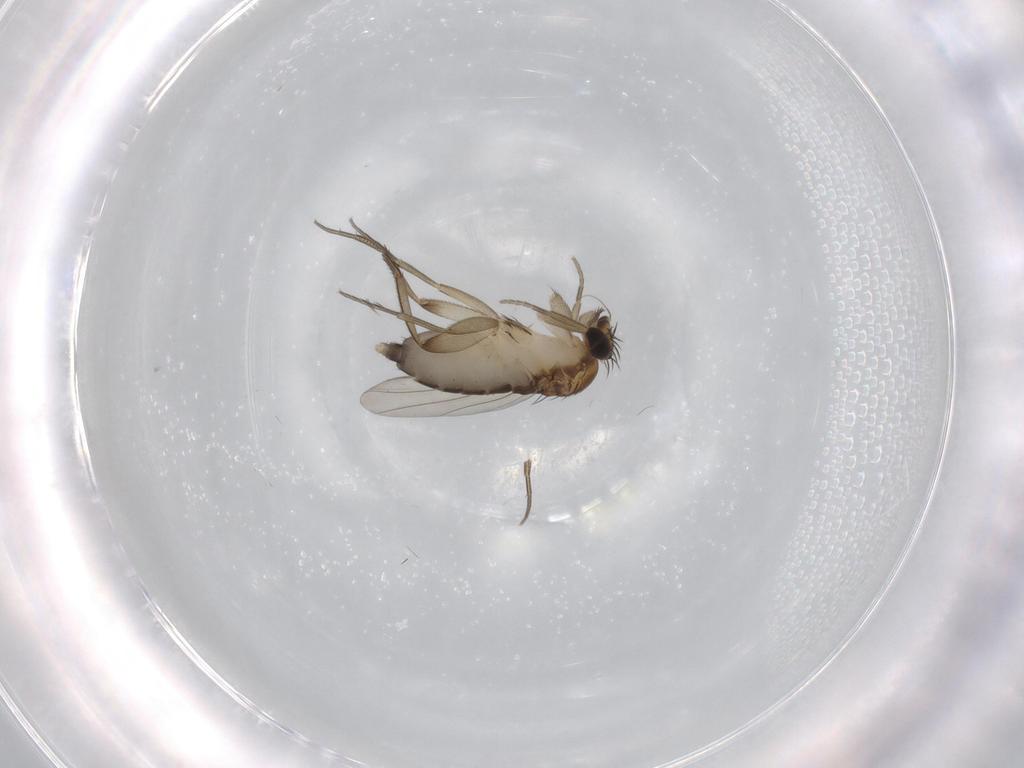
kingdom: Animalia
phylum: Arthropoda
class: Insecta
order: Diptera
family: Phoridae
